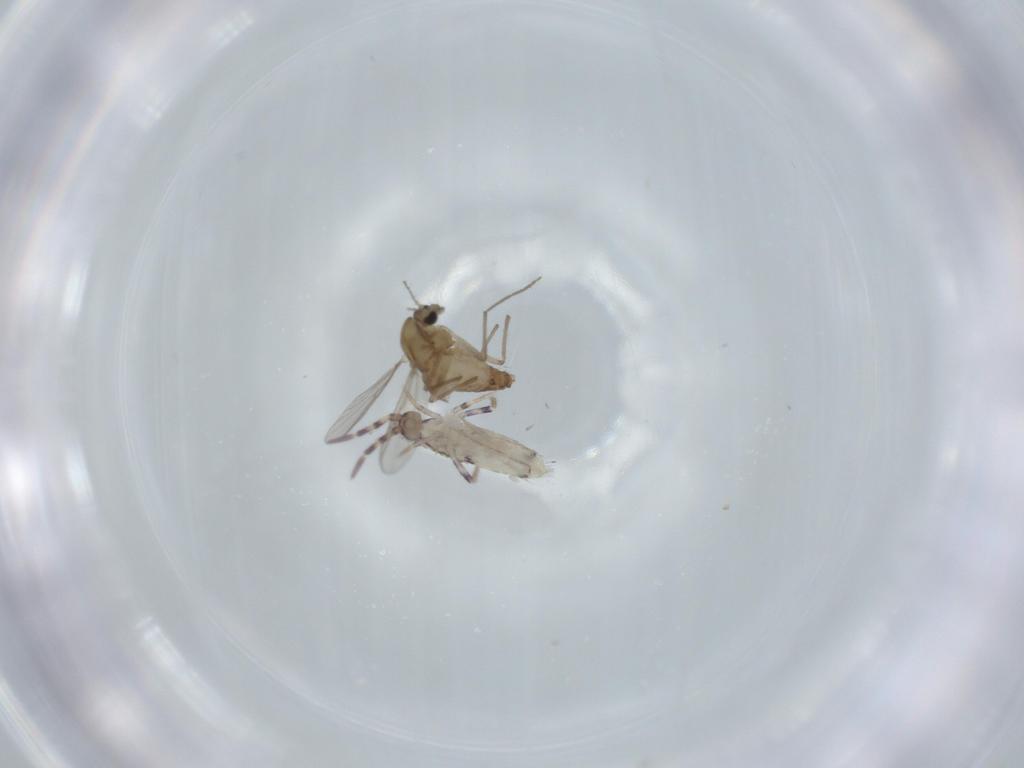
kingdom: Animalia
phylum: Arthropoda
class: Insecta
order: Diptera
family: Chironomidae
